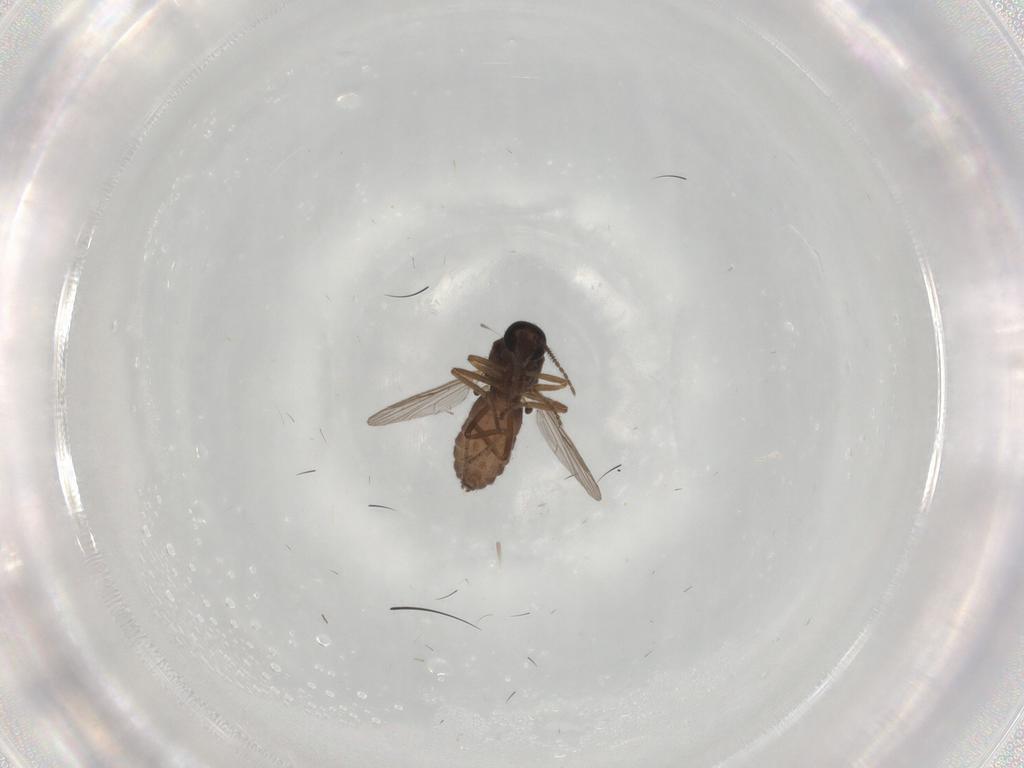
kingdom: Animalia
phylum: Arthropoda
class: Insecta
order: Diptera
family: Ceratopogonidae
